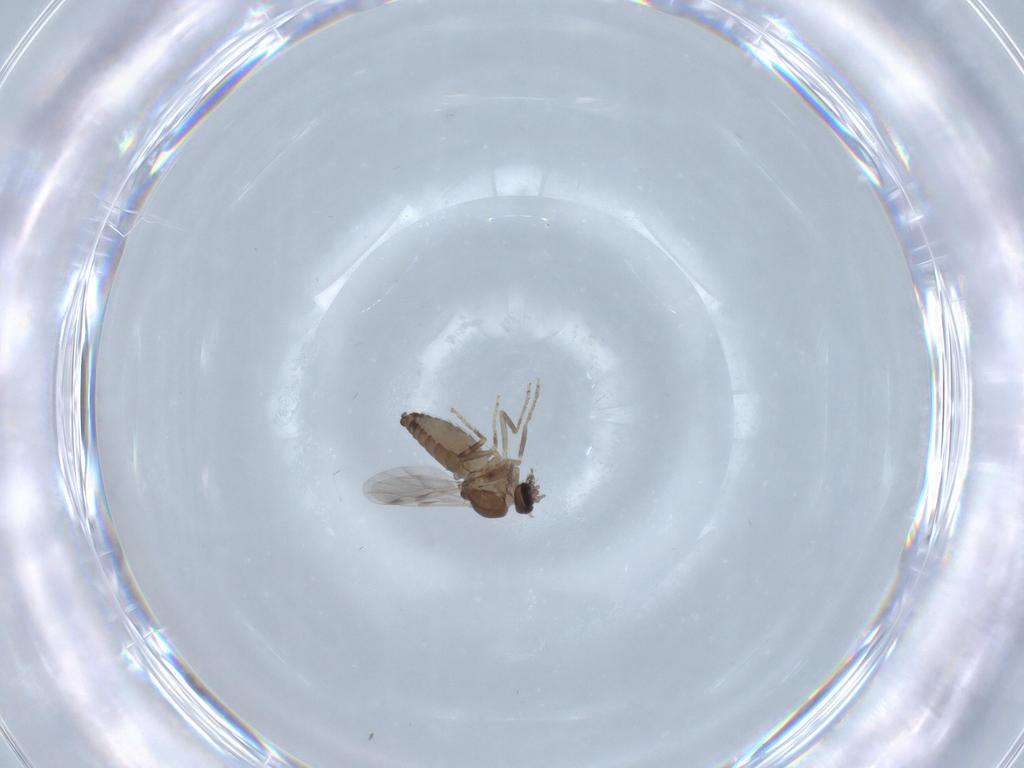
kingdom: Animalia
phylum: Arthropoda
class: Insecta
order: Diptera
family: Ceratopogonidae
